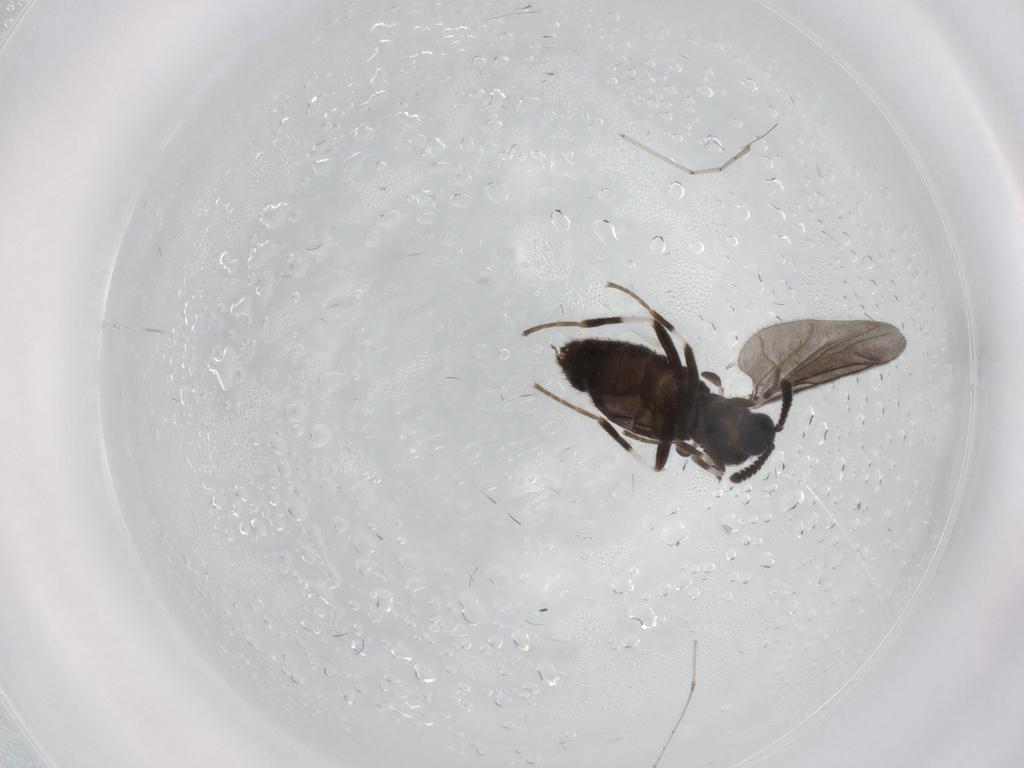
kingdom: Animalia
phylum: Arthropoda
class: Insecta
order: Diptera
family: Scatopsidae
